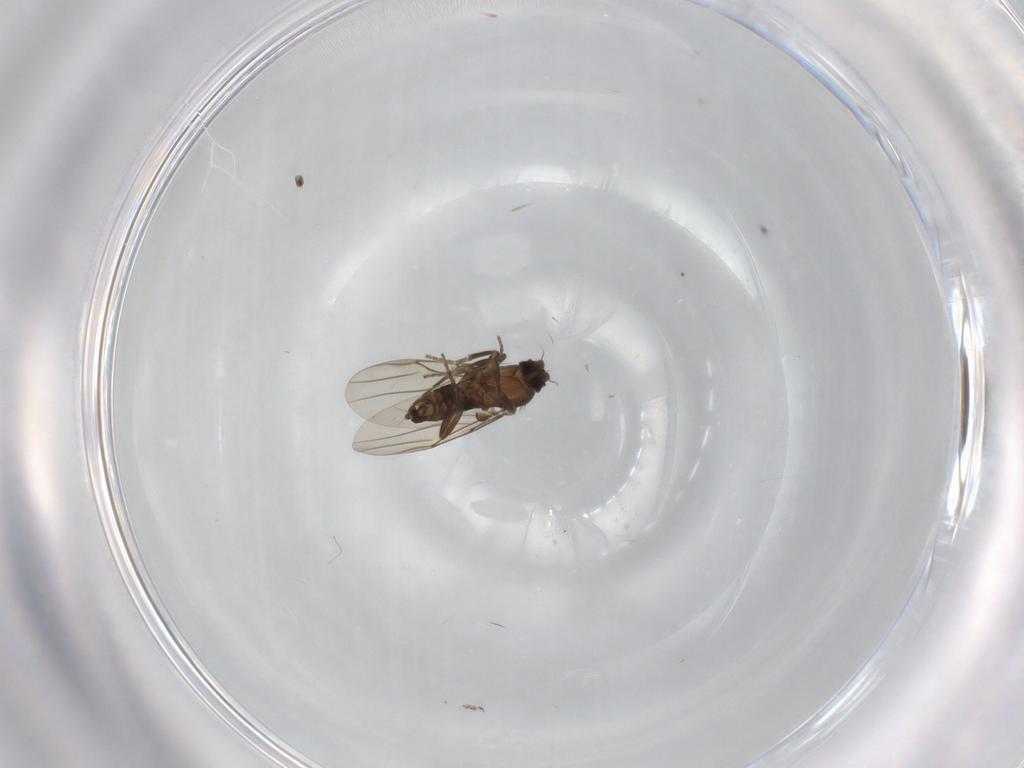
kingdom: Animalia
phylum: Arthropoda
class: Insecta
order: Diptera
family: Phoridae
